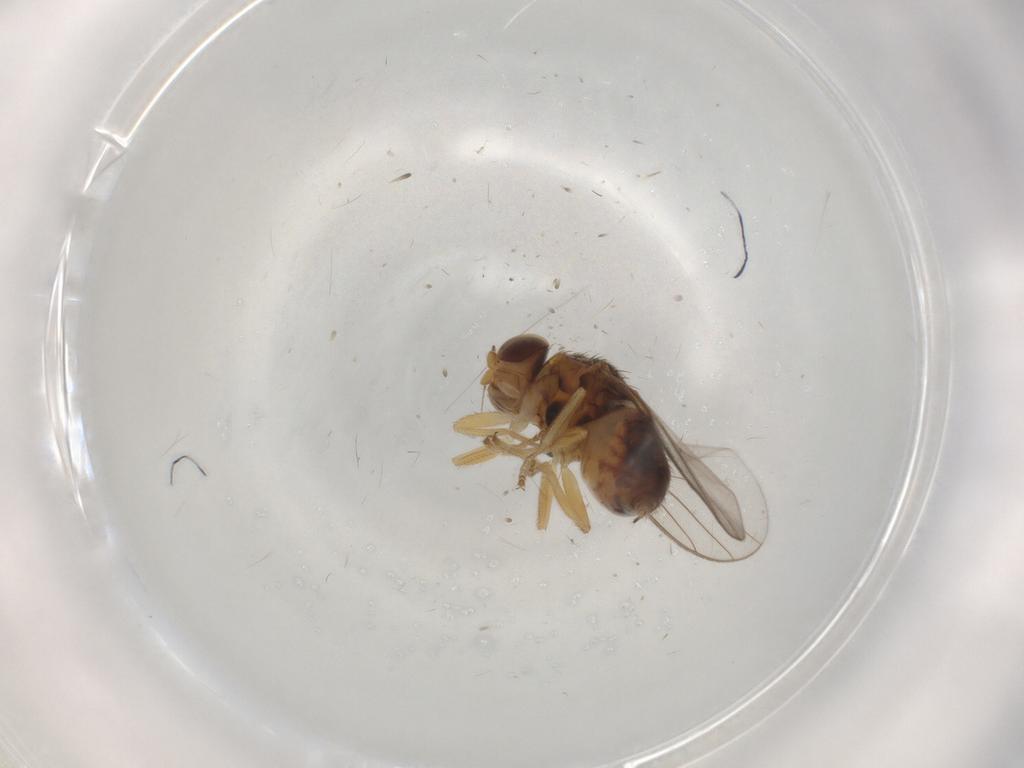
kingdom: Animalia
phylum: Arthropoda
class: Insecta
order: Diptera
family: Chloropidae
